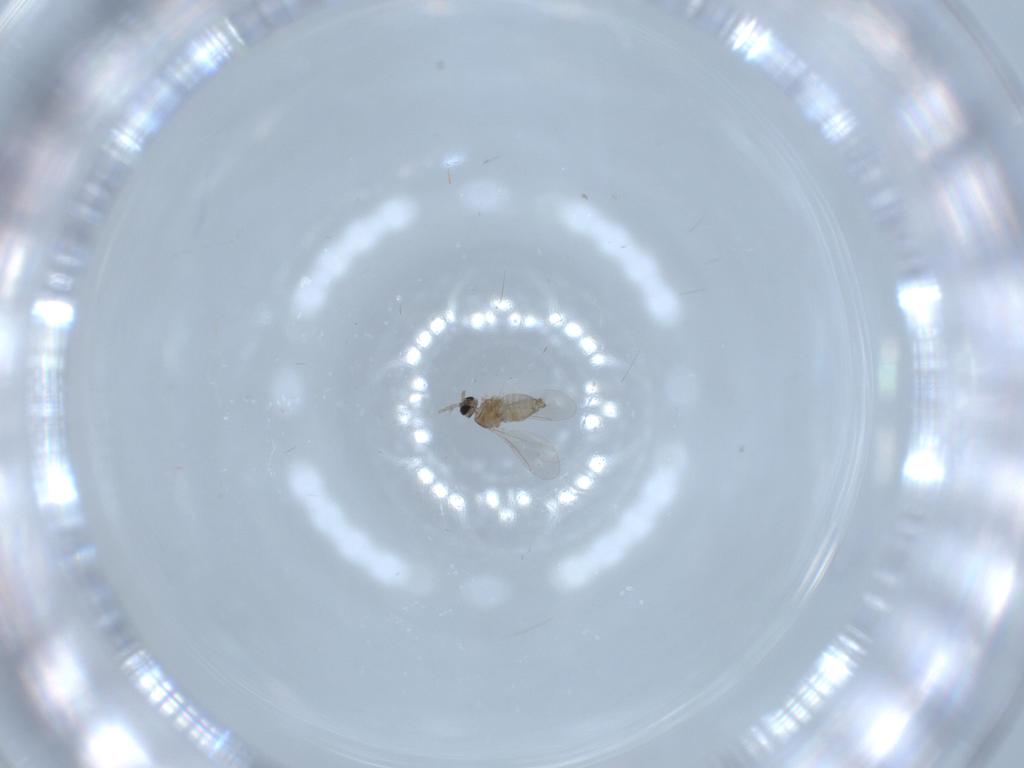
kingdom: Animalia
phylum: Arthropoda
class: Insecta
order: Diptera
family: Cecidomyiidae
